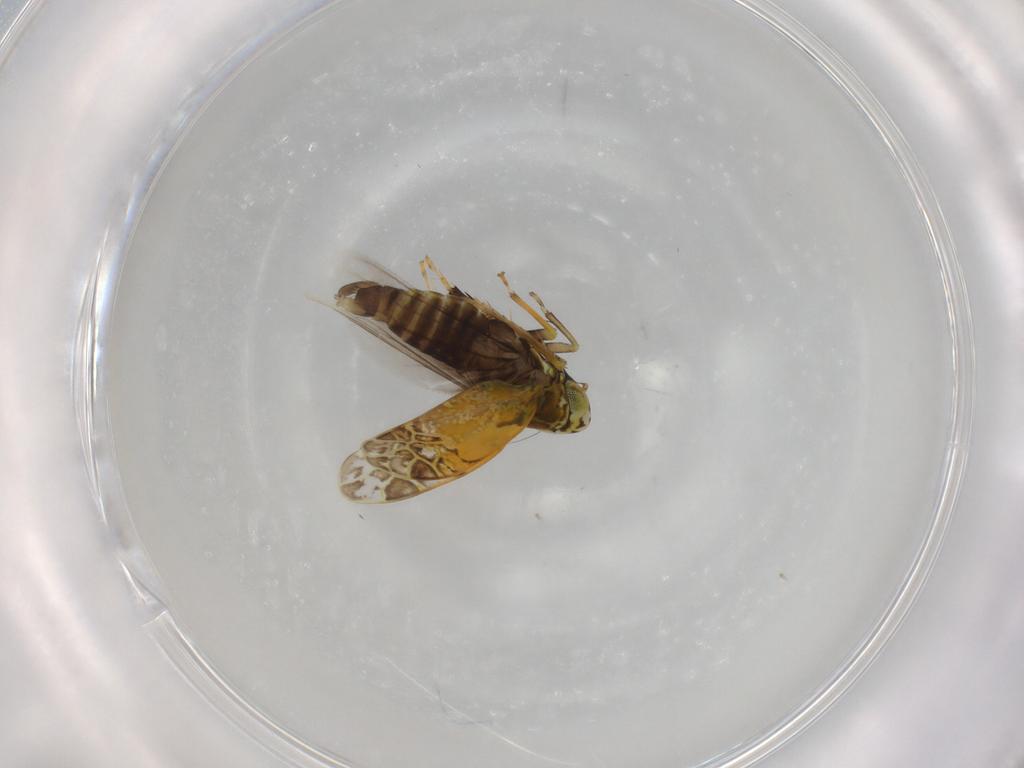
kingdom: Animalia
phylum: Arthropoda
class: Insecta
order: Hemiptera
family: Cicadellidae
